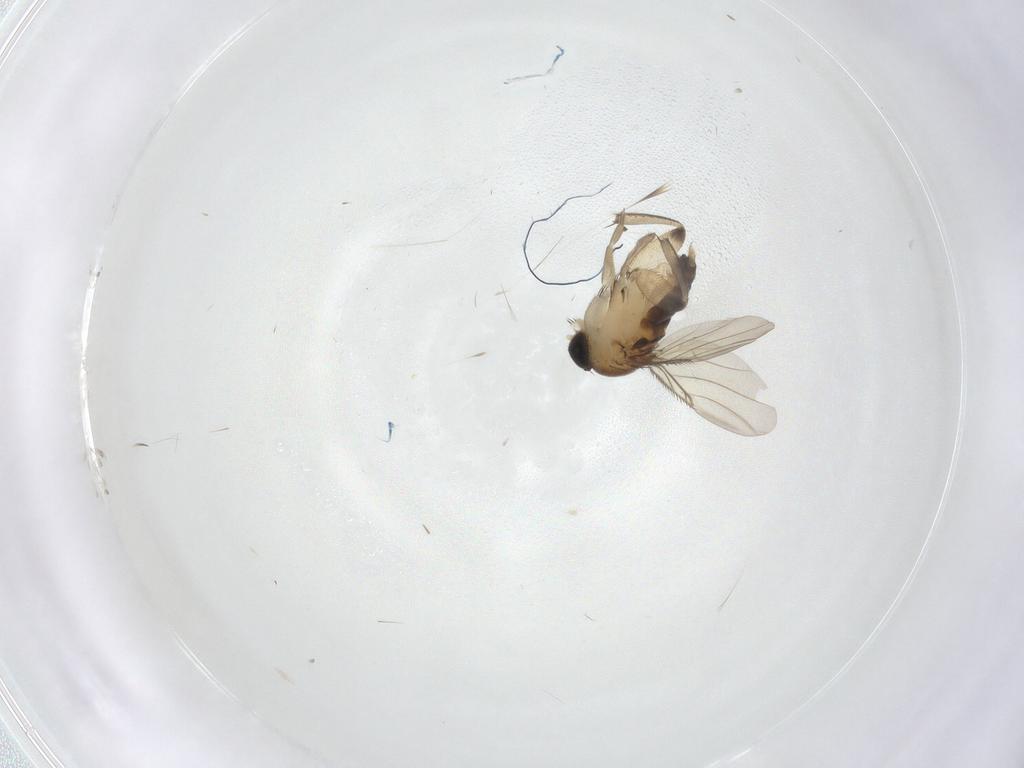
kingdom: Animalia
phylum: Arthropoda
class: Insecta
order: Diptera
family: Phoridae
